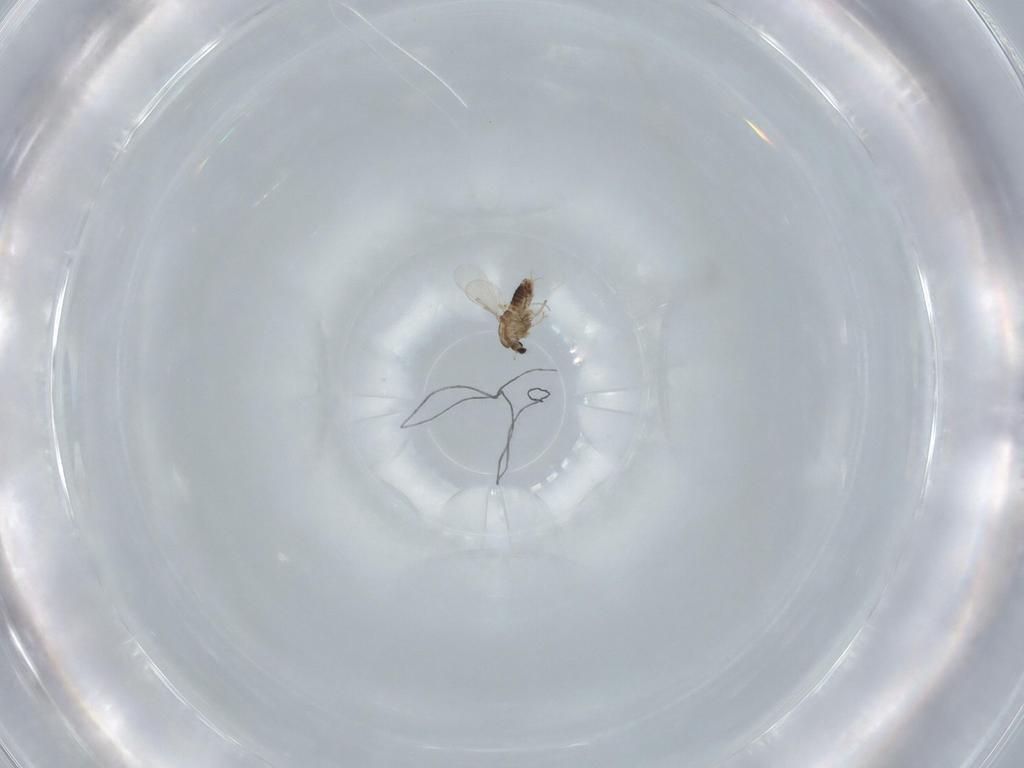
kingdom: Animalia
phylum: Arthropoda
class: Insecta
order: Diptera
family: Chironomidae
